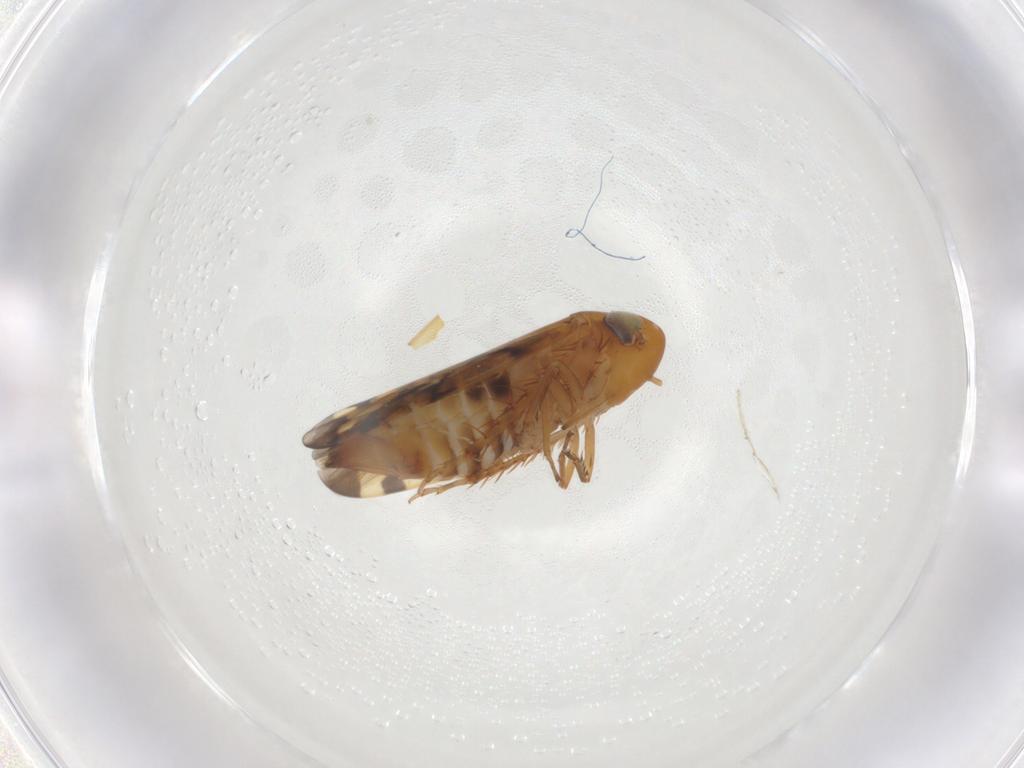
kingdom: Animalia
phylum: Arthropoda
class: Insecta
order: Hemiptera
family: Cicadellidae
